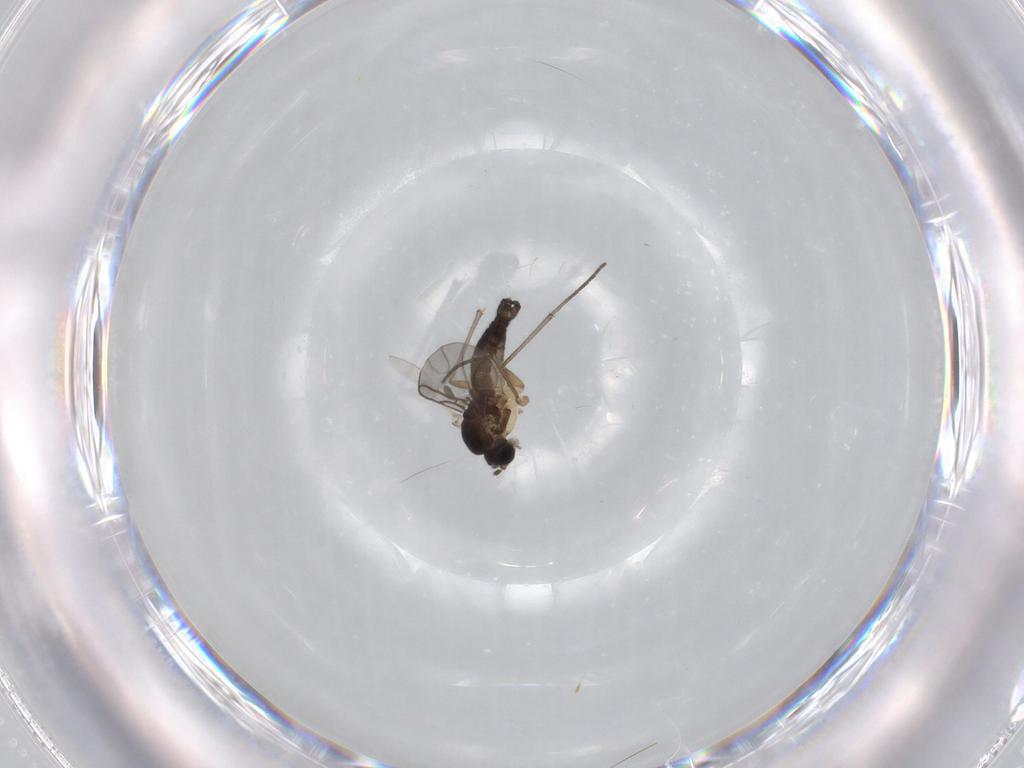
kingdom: Animalia
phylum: Arthropoda
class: Insecta
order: Diptera
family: Sciaridae
